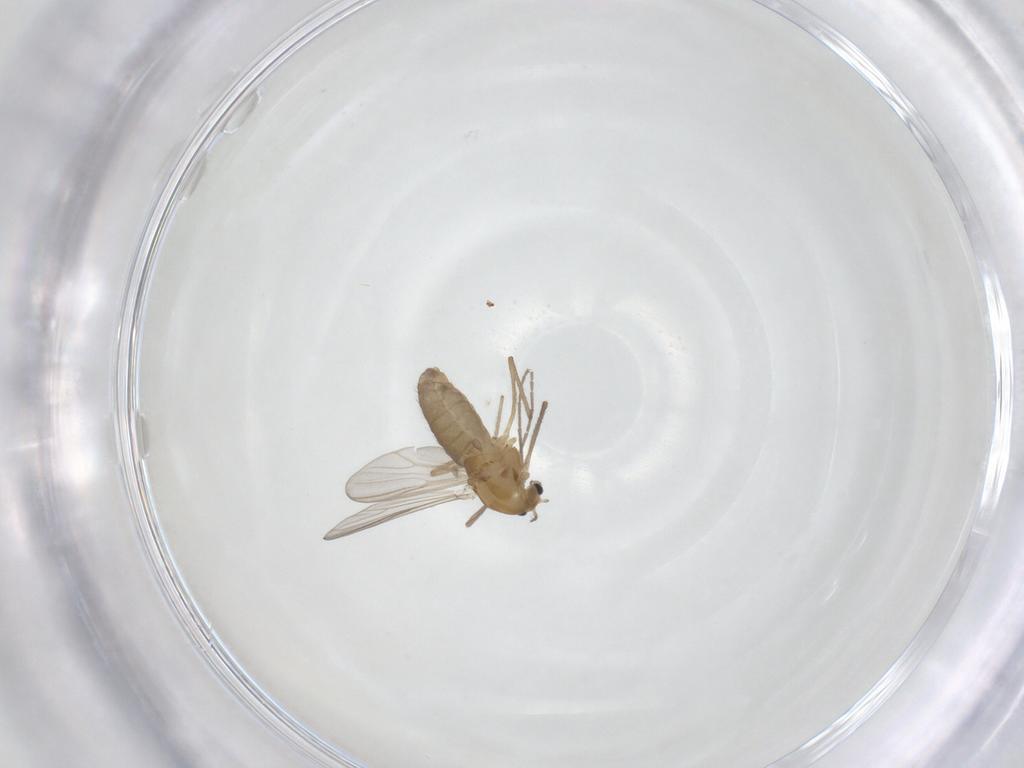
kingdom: Animalia
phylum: Arthropoda
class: Insecta
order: Diptera
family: Chironomidae
